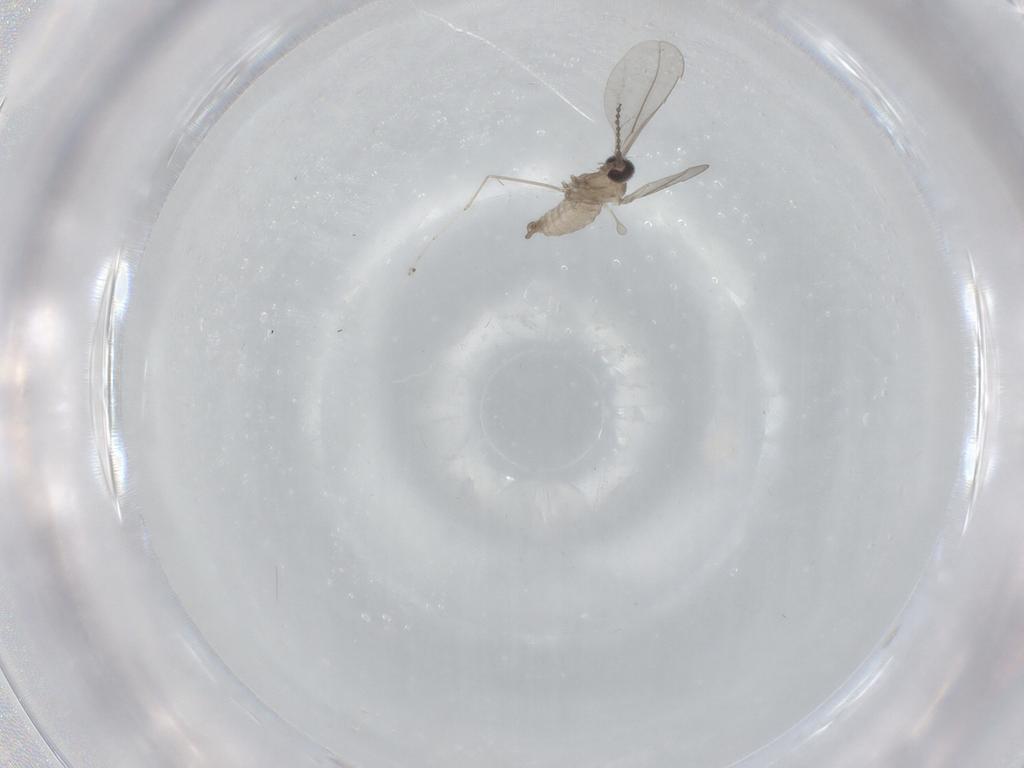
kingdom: Animalia
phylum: Arthropoda
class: Insecta
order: Diptera
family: Cecidomyiidae
